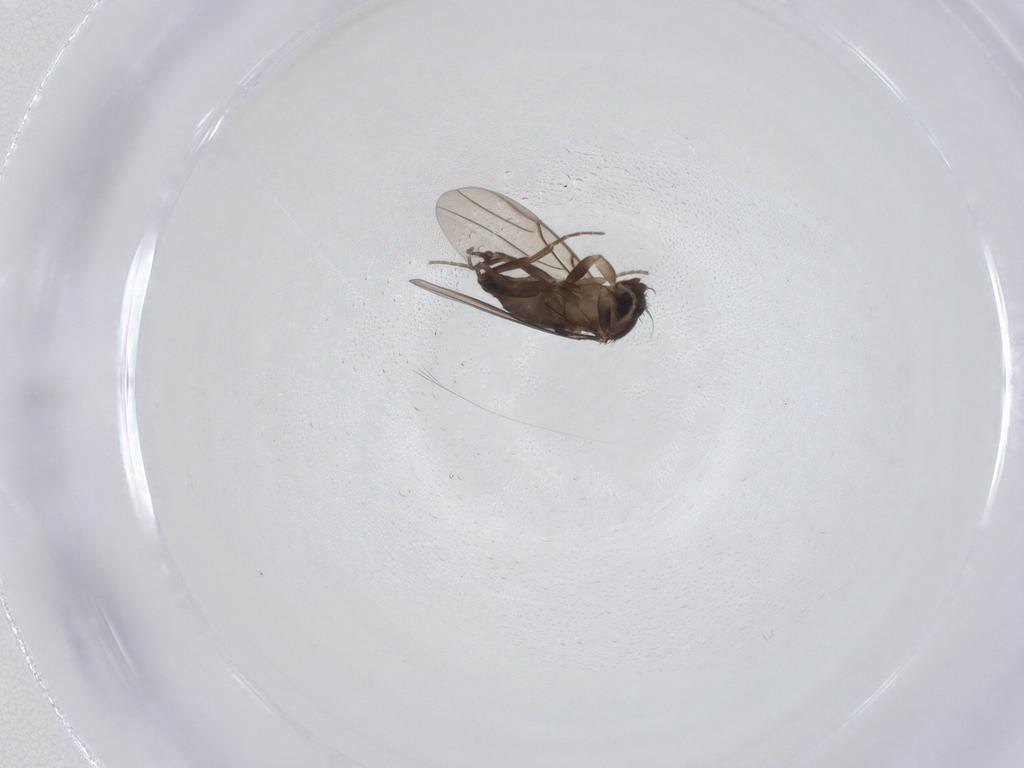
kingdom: Animalia
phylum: Arthropoda
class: Insecta
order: Diptera
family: Phoridae
